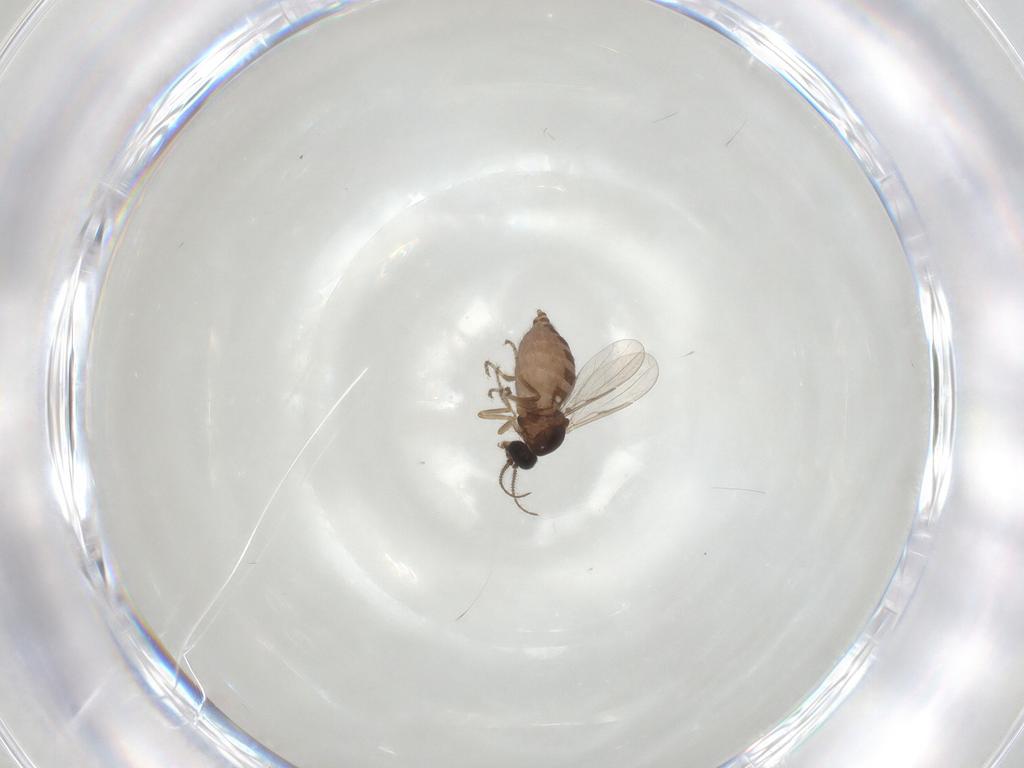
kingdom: Animalia
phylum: Arthropoda
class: Insecta
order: Diptera
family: Ceratopogonidae
